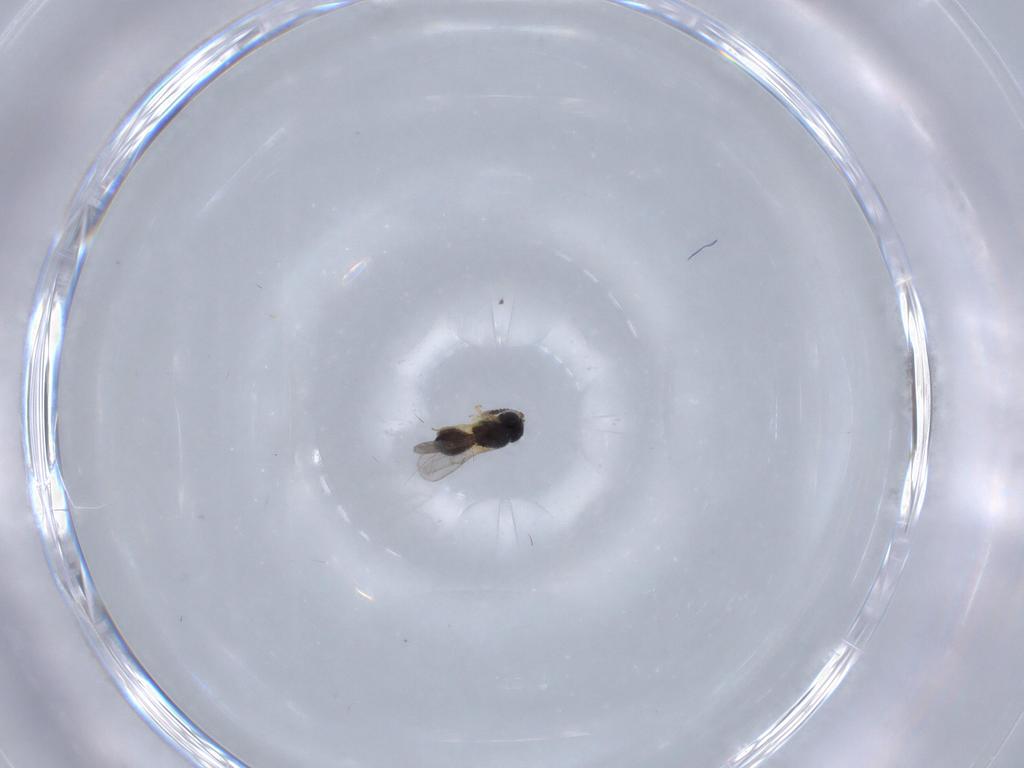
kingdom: Animalia
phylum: Arthropoda
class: Insecta
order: Hymenoptera
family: Scelionidae
